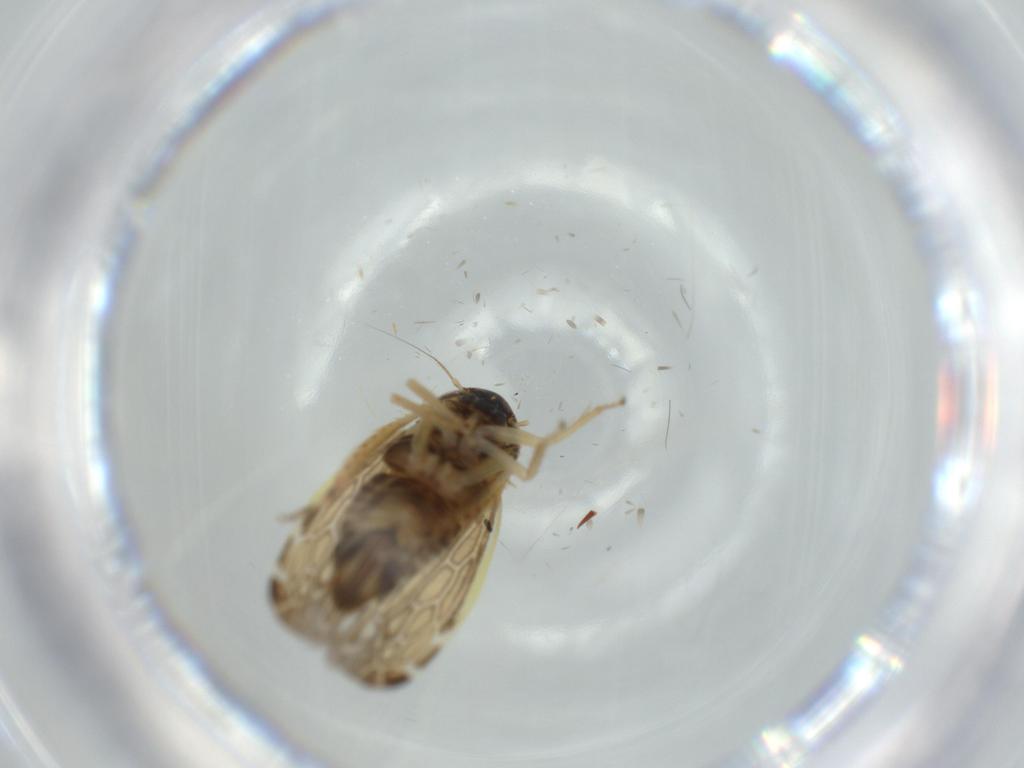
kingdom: Animalia
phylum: Arthropoda
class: Insecta
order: Hemiptera
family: Cicadellidae
